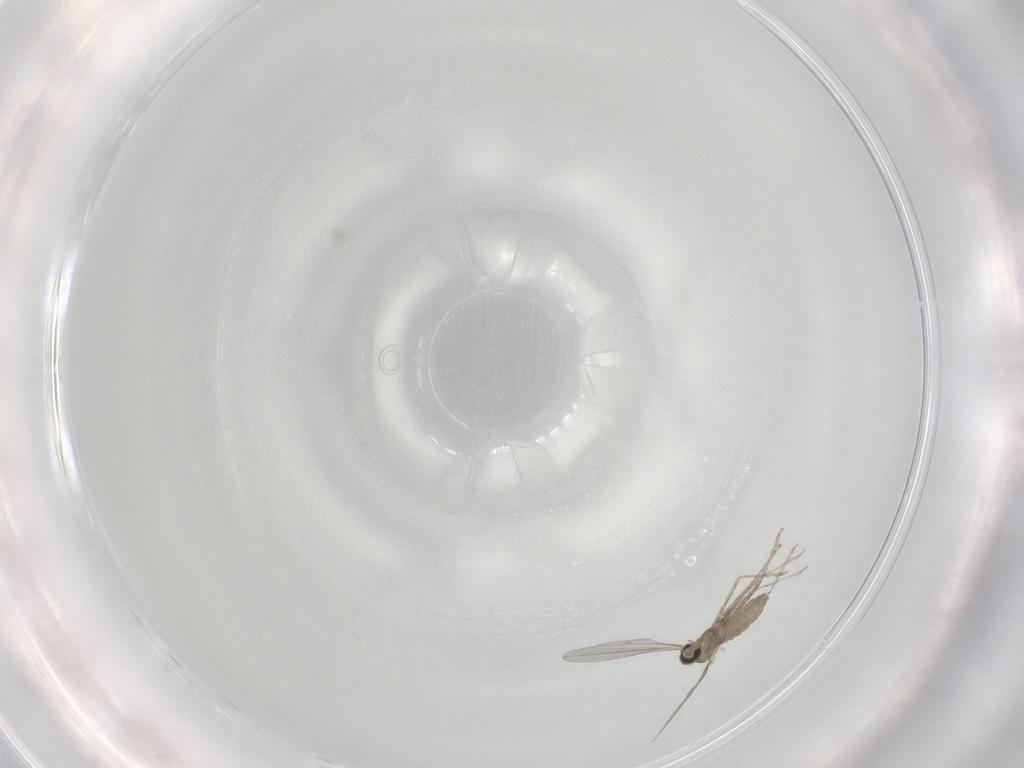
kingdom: Animalia
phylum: Arthropoda
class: Insecta
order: Diptera
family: Cecidomyiidae
